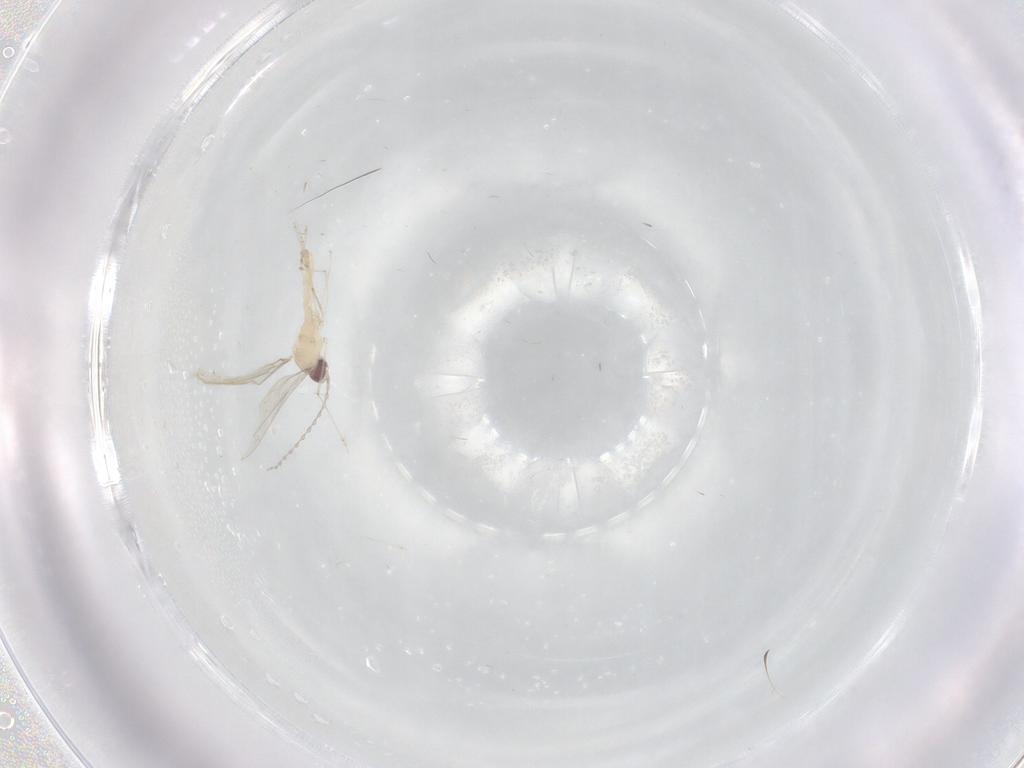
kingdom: Animalia
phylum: Arthropoda
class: Insecta
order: Diptera
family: Cecidomyiidae
